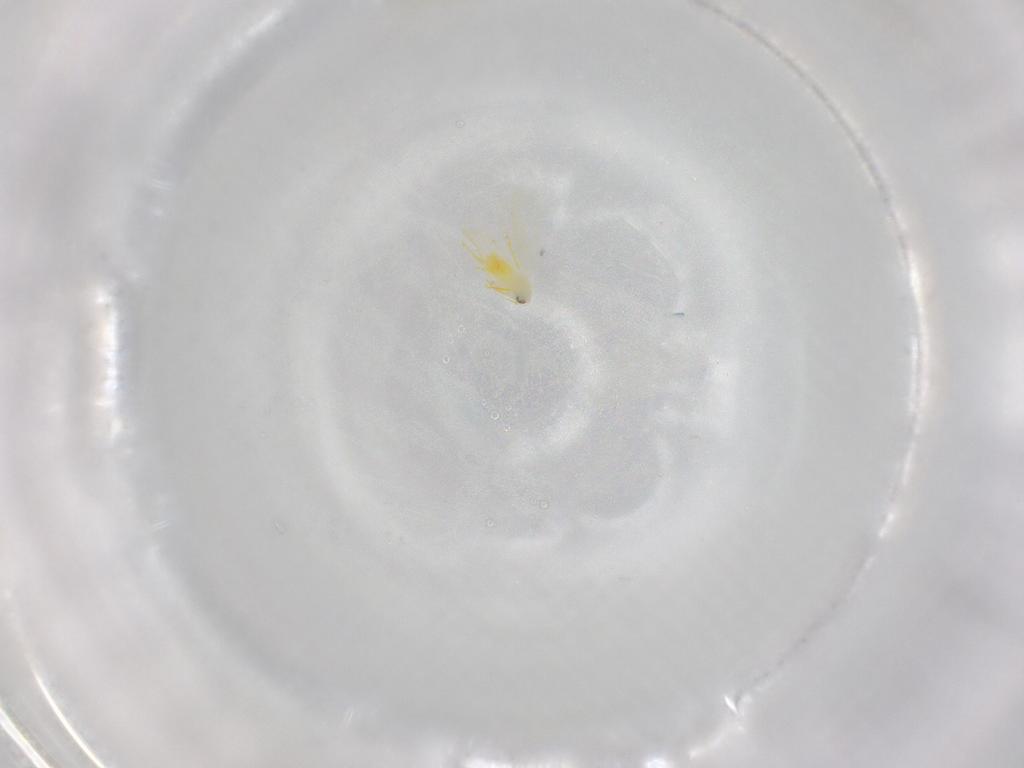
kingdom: Animalia
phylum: Arthropoda
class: Insecta
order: Hemiptera
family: Aleyrodidae
